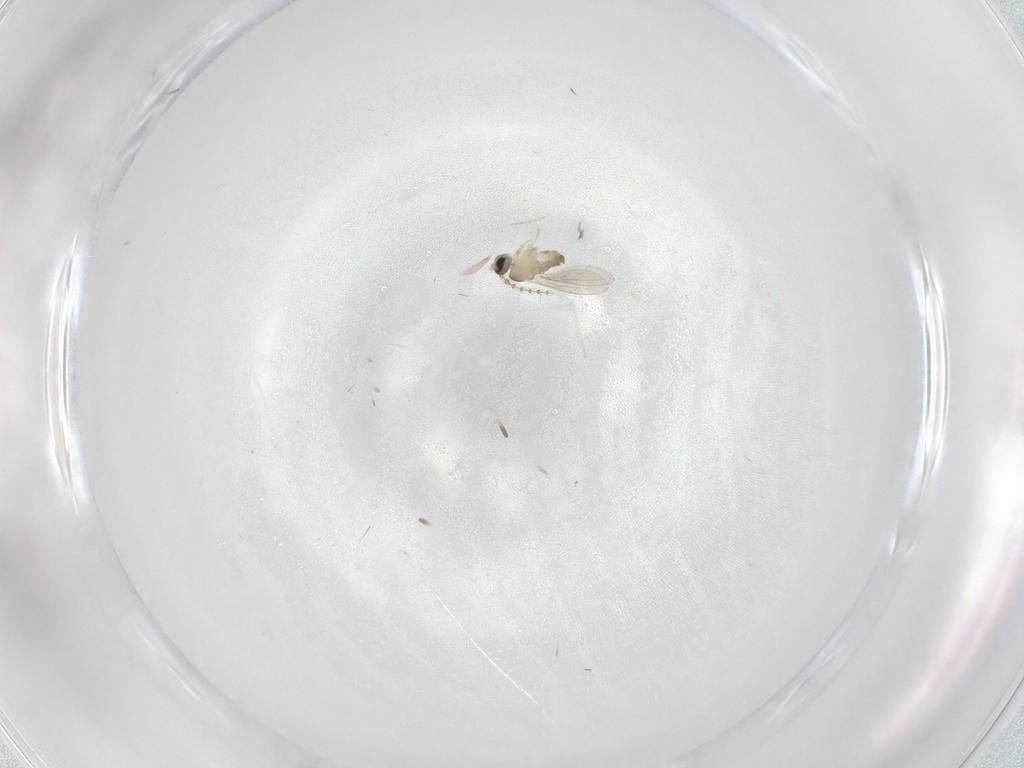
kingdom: Animalia
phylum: Arthropoda
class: Insecta
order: Diptera
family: Cecidomyiidae
